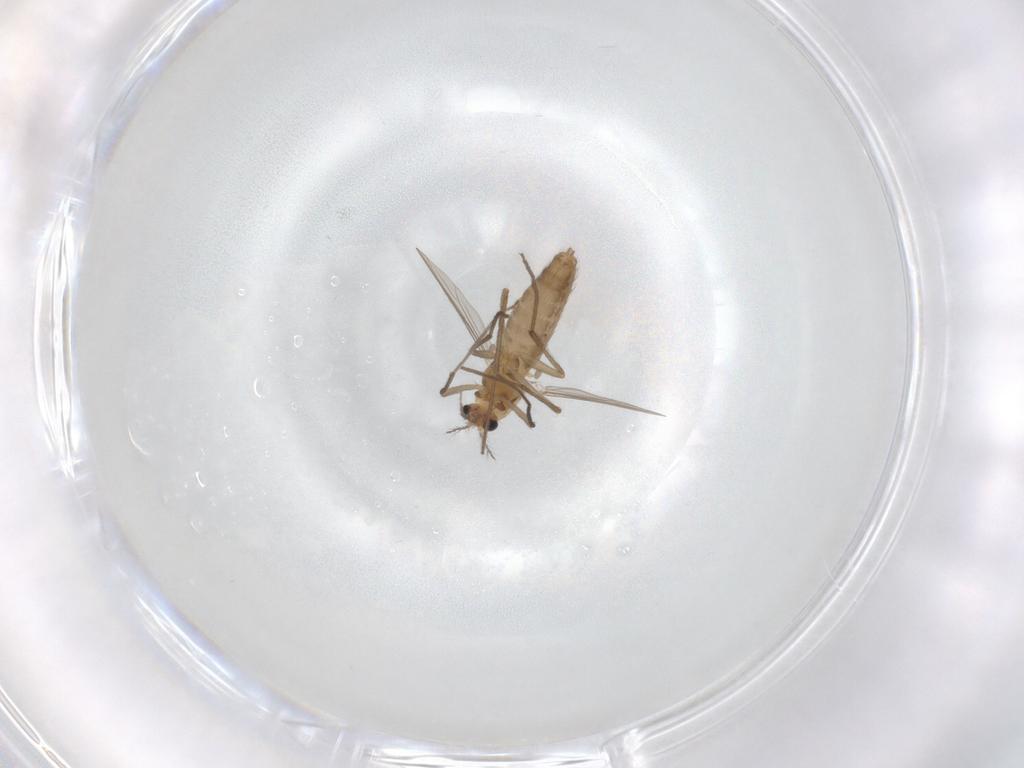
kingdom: Animalia
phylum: Arthropoda
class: Insecta
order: Diptera
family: Chironomidae
